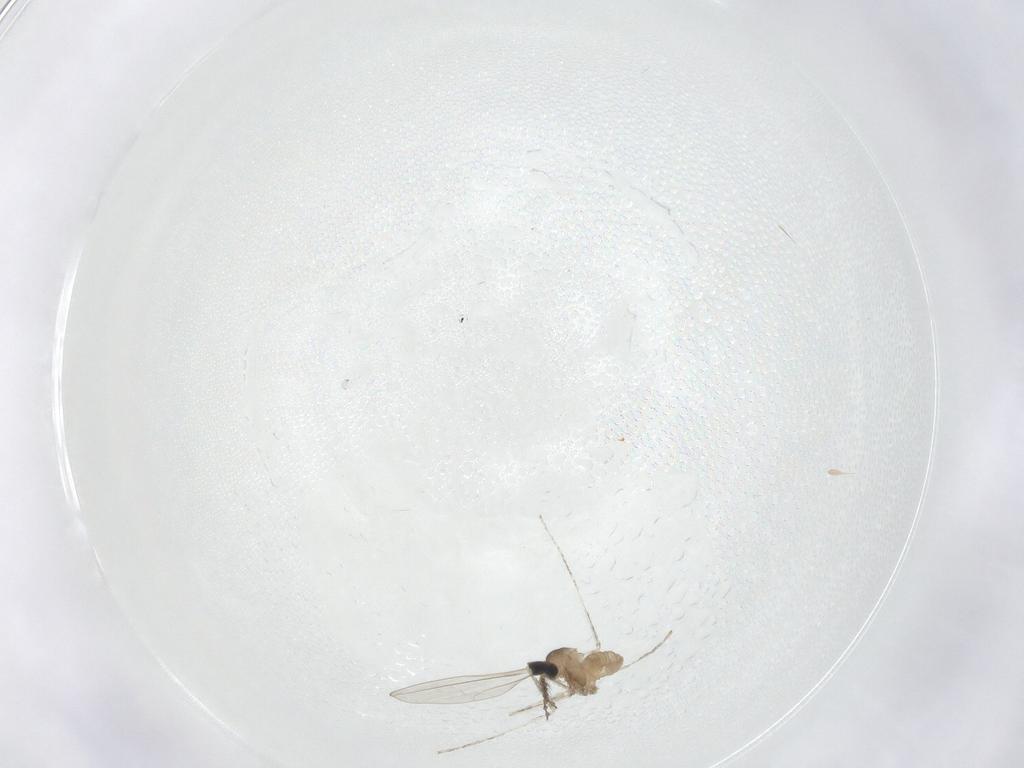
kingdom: Animalia
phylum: Arthropoda
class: Insecta
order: Diptera
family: Cecidomyiidae
